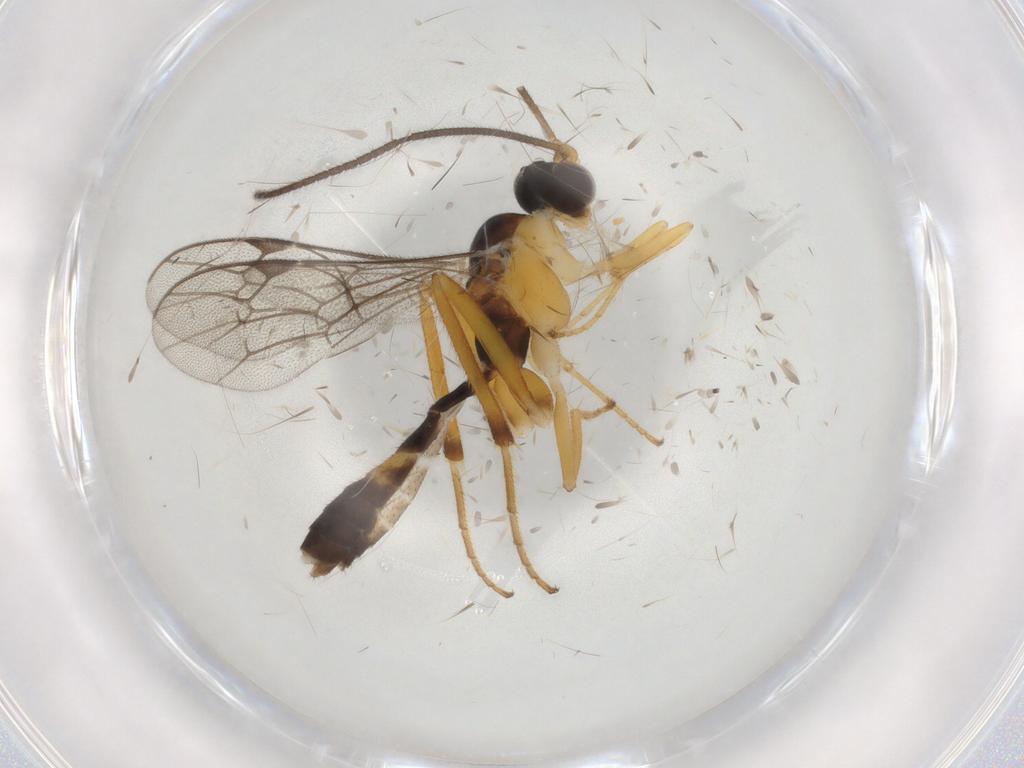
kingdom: Animalia
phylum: Arthropoda
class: Insecta
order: Hymenoptera
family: Ichneumonidae
